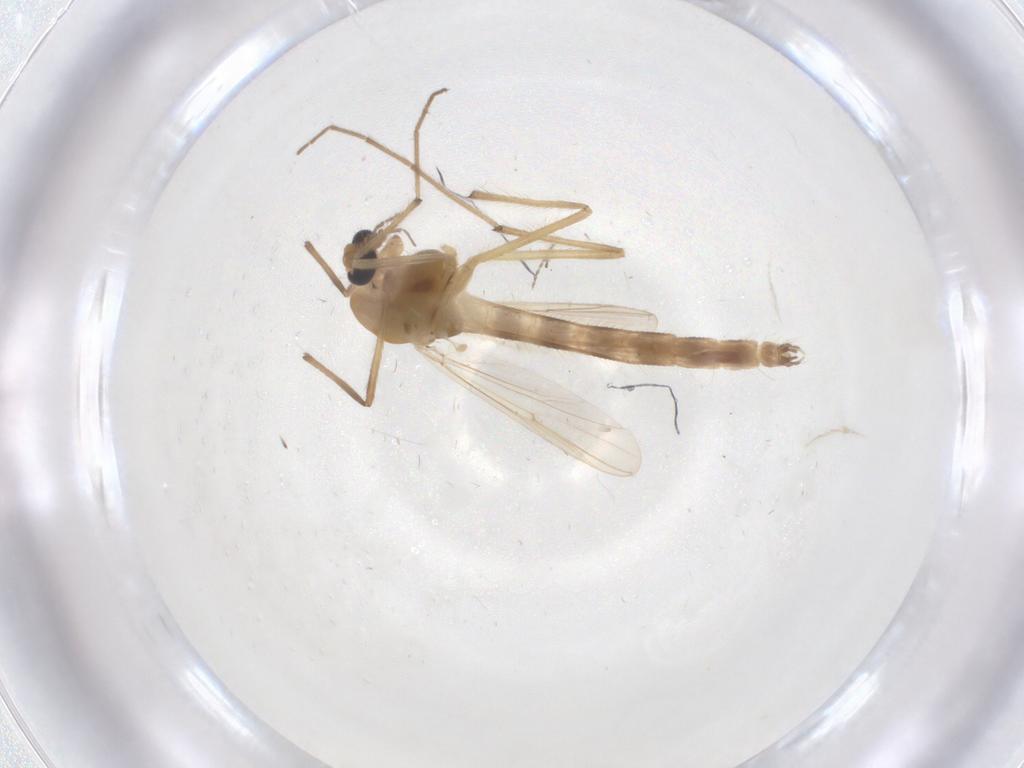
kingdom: Animalia
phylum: Arthropoda
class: Insecta
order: Diptera
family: Chironomidae
